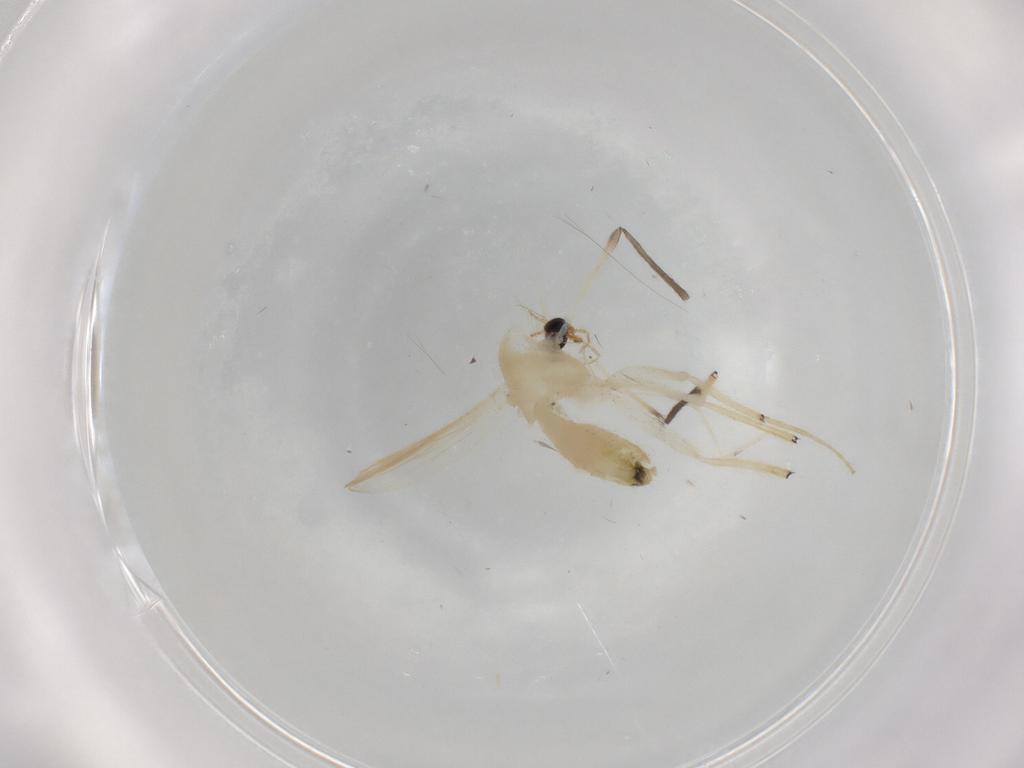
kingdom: Animalia
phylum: Arthropoda
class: Insecta
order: Diptera
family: Cecidomyiidae
